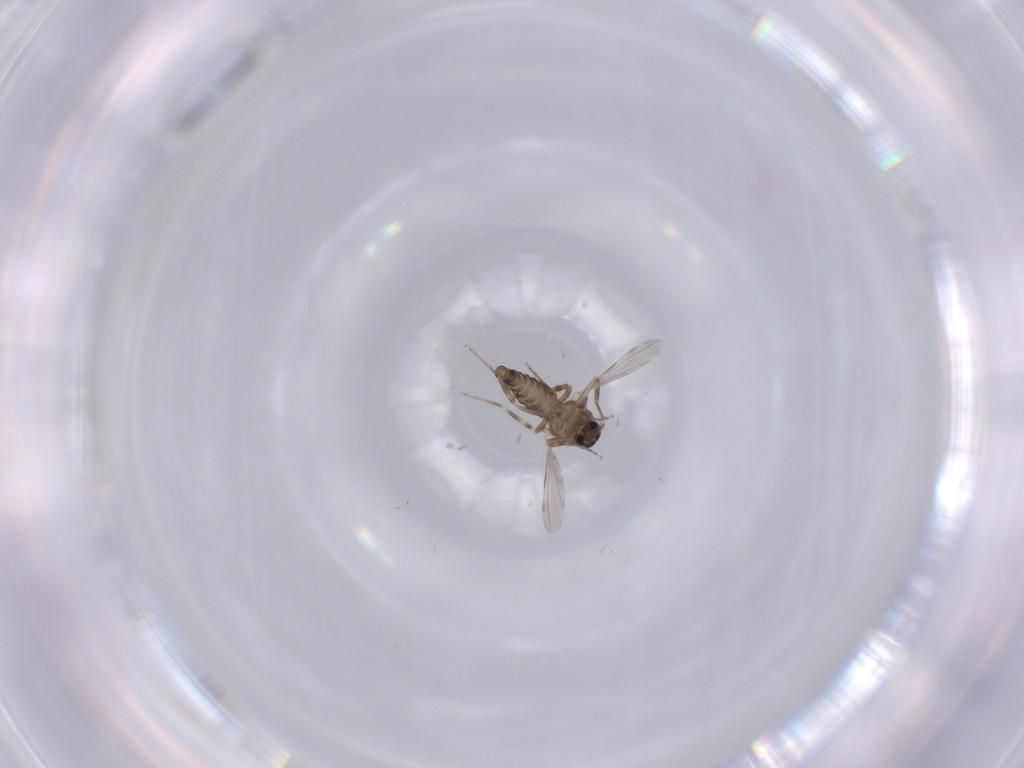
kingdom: Animalia
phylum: Arthropoda
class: Insecta
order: Diptera
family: Ceratopogonidae
